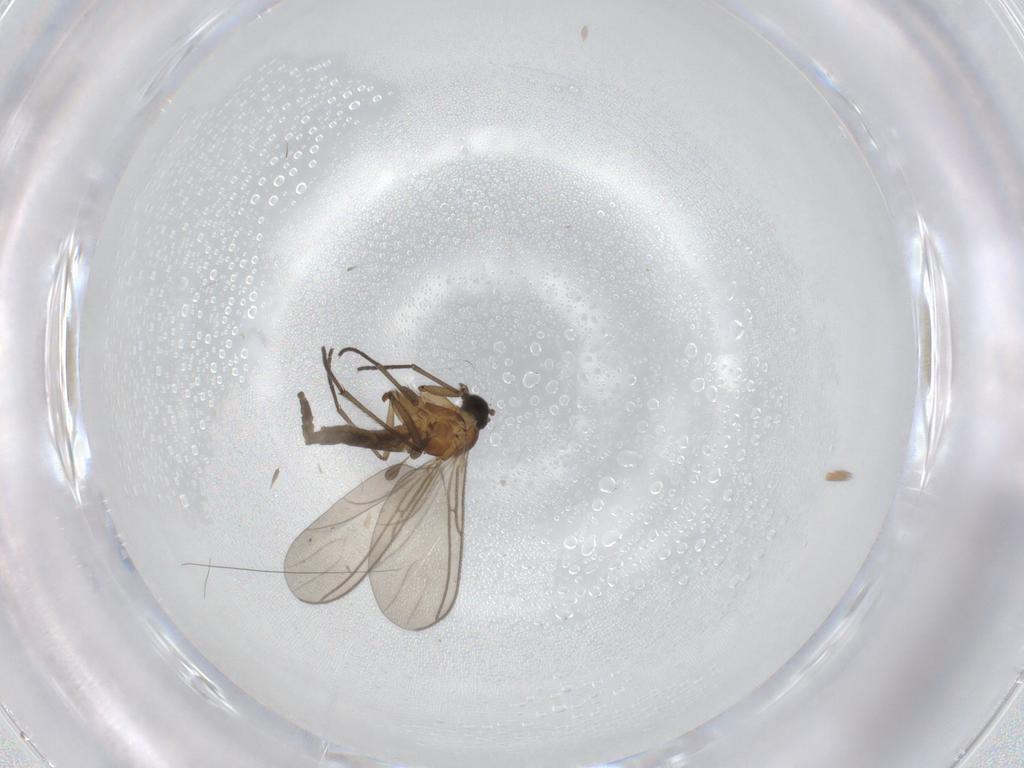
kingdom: Animalia
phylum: Arthropoda
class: Insecta
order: Diptera
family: Sciaridae
